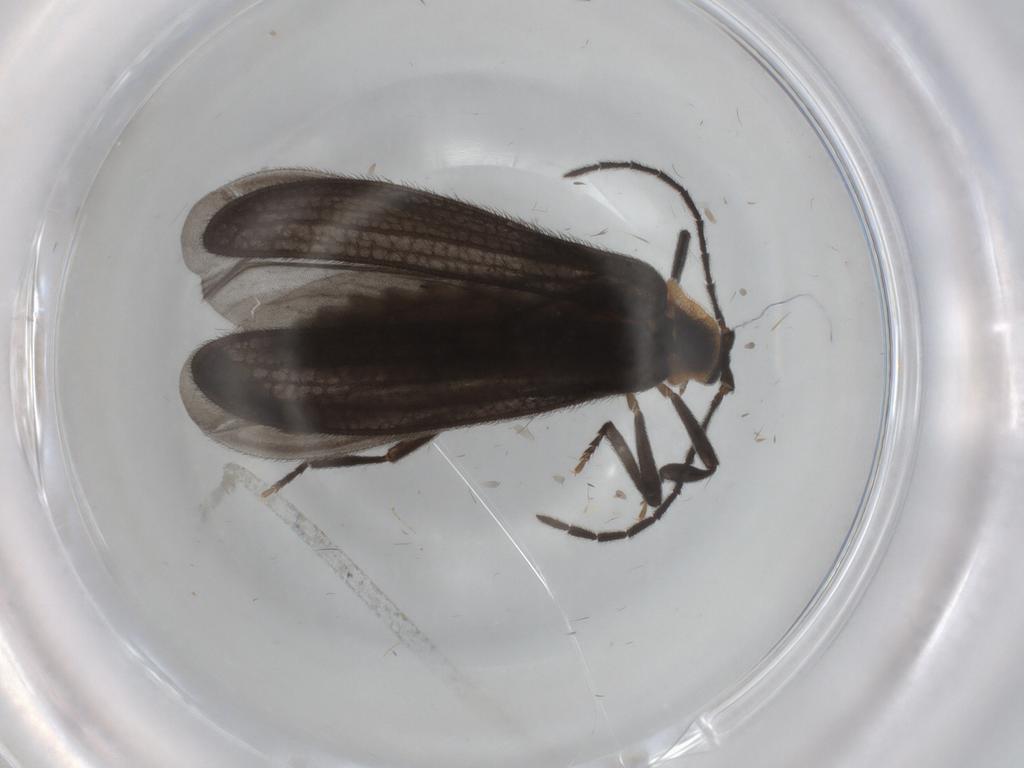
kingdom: Animalia
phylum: Arthropoda
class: Insecta
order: Coleoptera
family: Lycidae
